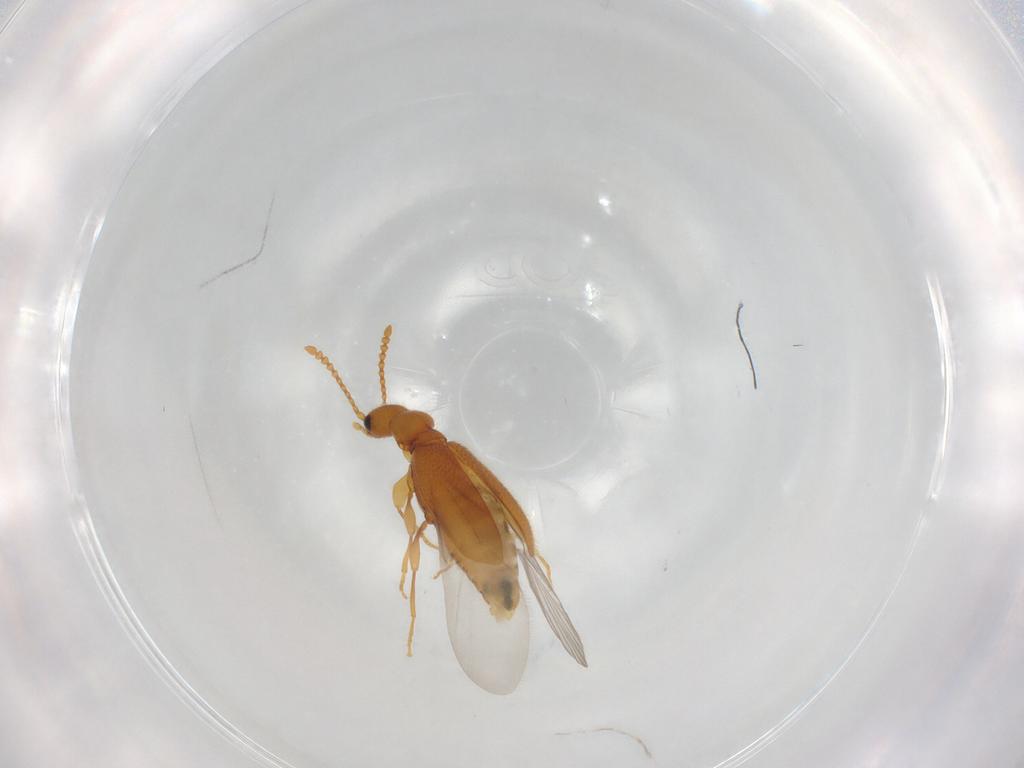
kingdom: Animalia
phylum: Arthropoda
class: Insecta
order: Coleoptera
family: Anthicidae
